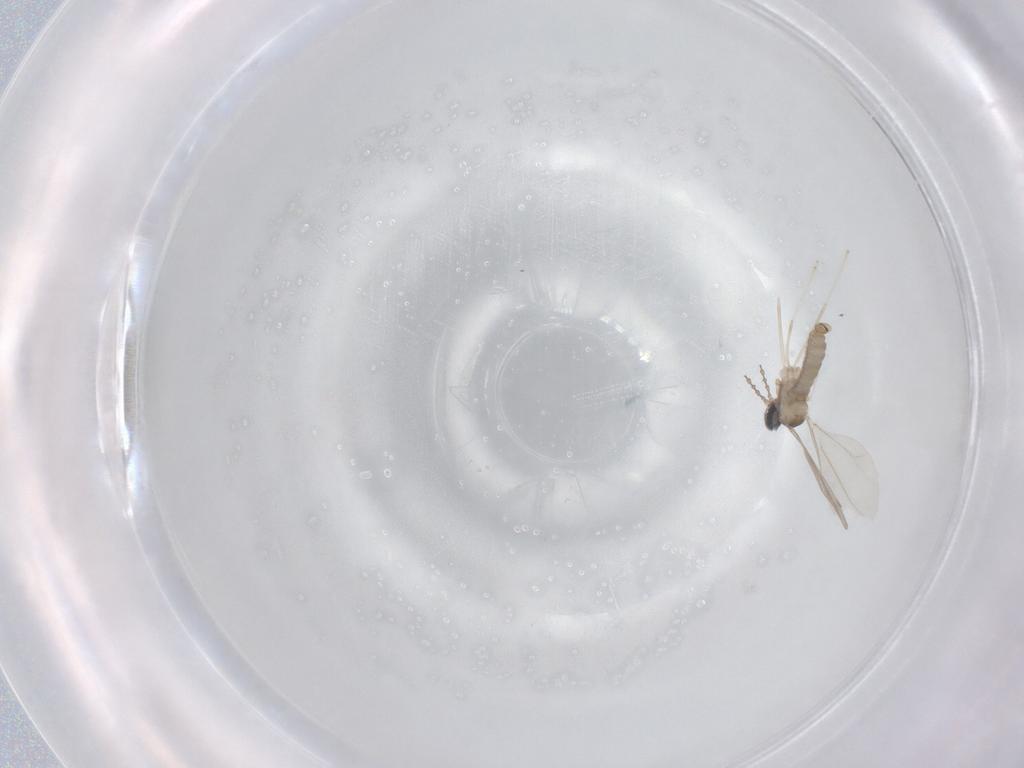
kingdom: Animalia
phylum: Arthropoda
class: Insecta
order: Diptera
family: Cecidomyiidae
